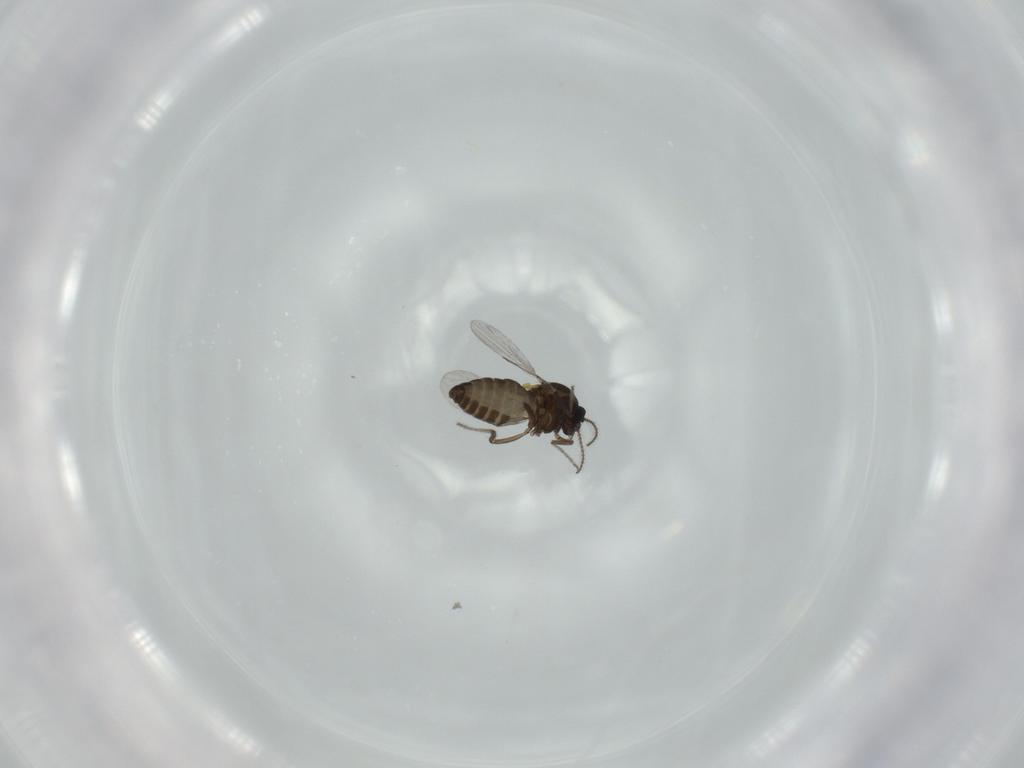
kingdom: Animalia
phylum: Arthropoda
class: Insecta
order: Diptera
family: Ceratopogonidae
